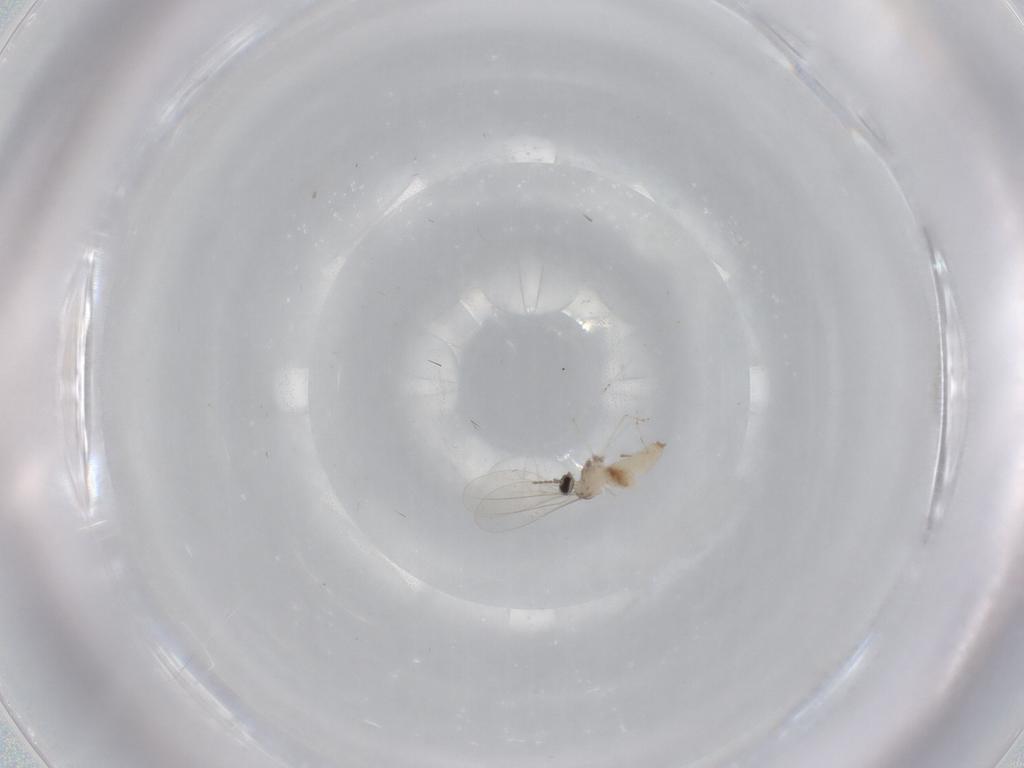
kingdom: Animalia
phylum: Arthropoda
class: Insecta
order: Diptera
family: Cecidomyiidae
